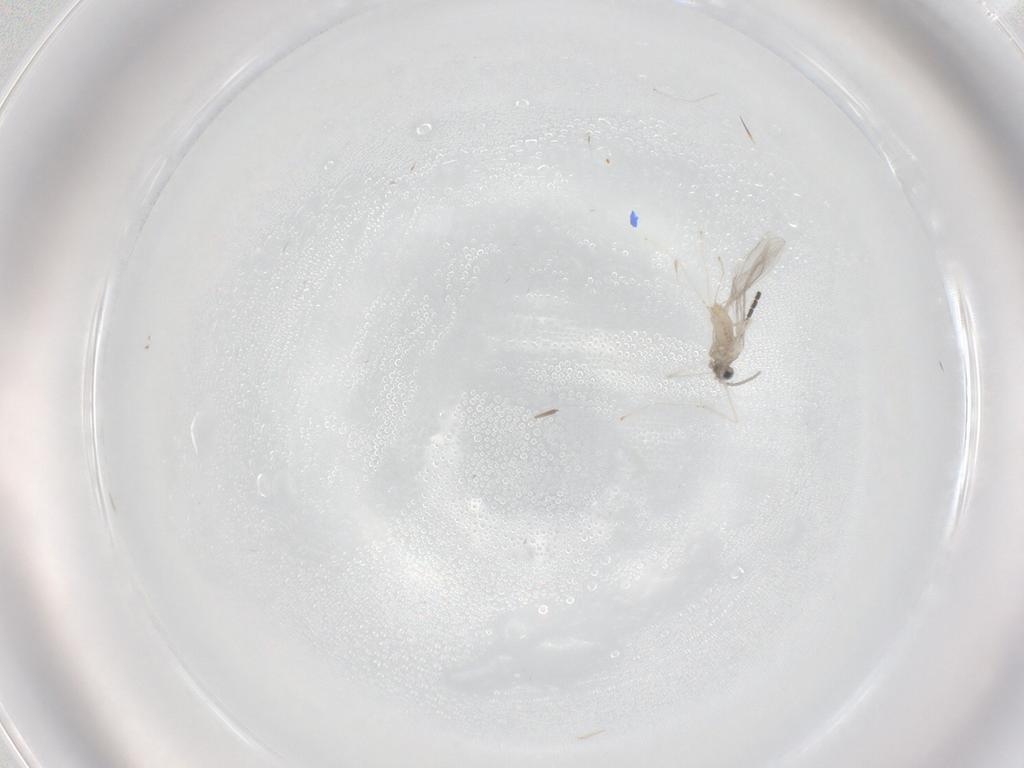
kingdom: Animalia
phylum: Arthropoda
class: Insecta
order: Diptera
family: Cecidomyiidae
